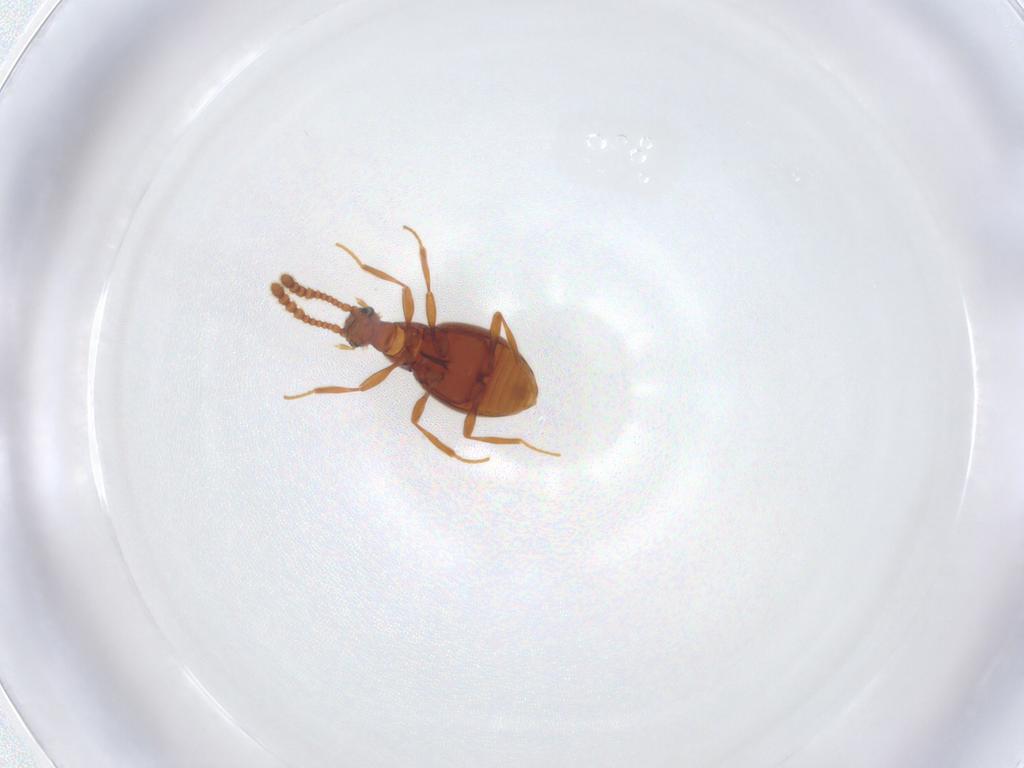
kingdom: Animalia
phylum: Arthropoda
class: Insecta
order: Coleoptera
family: Staphylinidae
